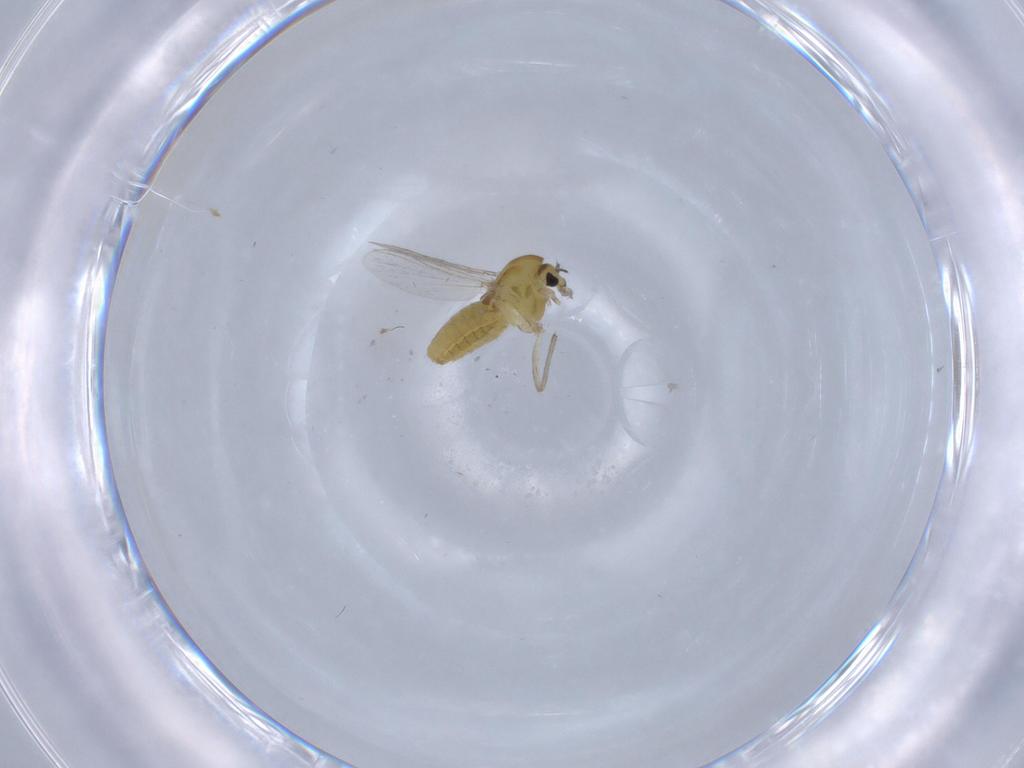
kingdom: Animalia
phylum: Arthropoda
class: Insecta
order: Diptera
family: Chironomidae
